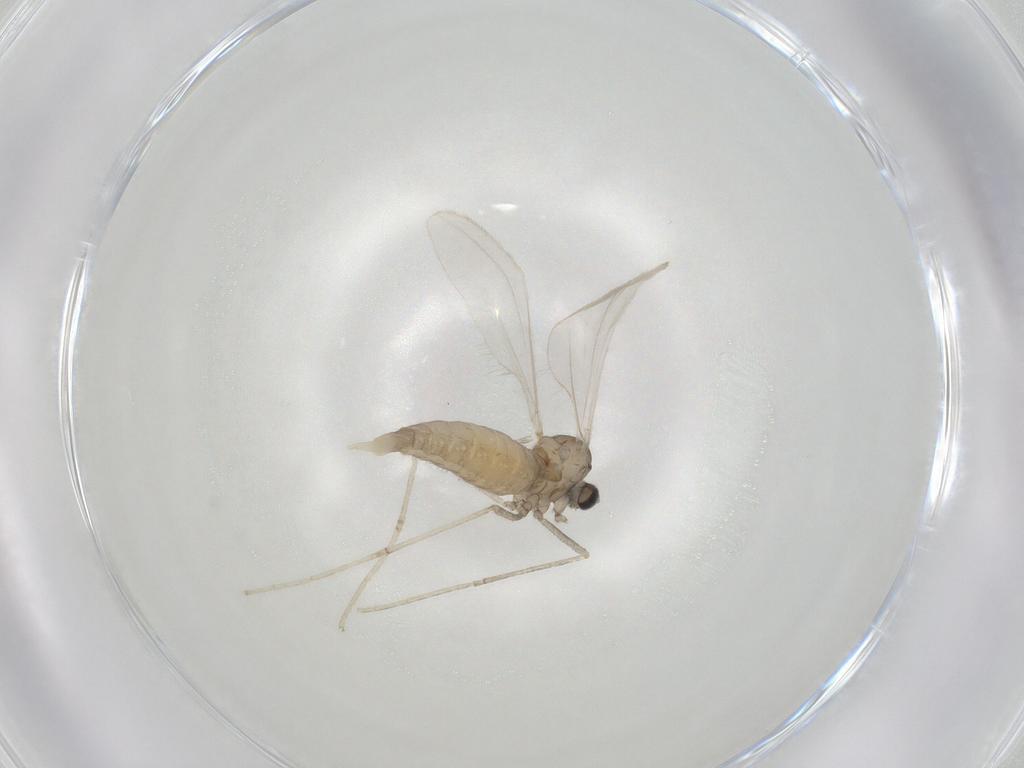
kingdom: Animalia
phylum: Arthropoda
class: Insecta
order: Diptera
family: Cecidomyiidae
